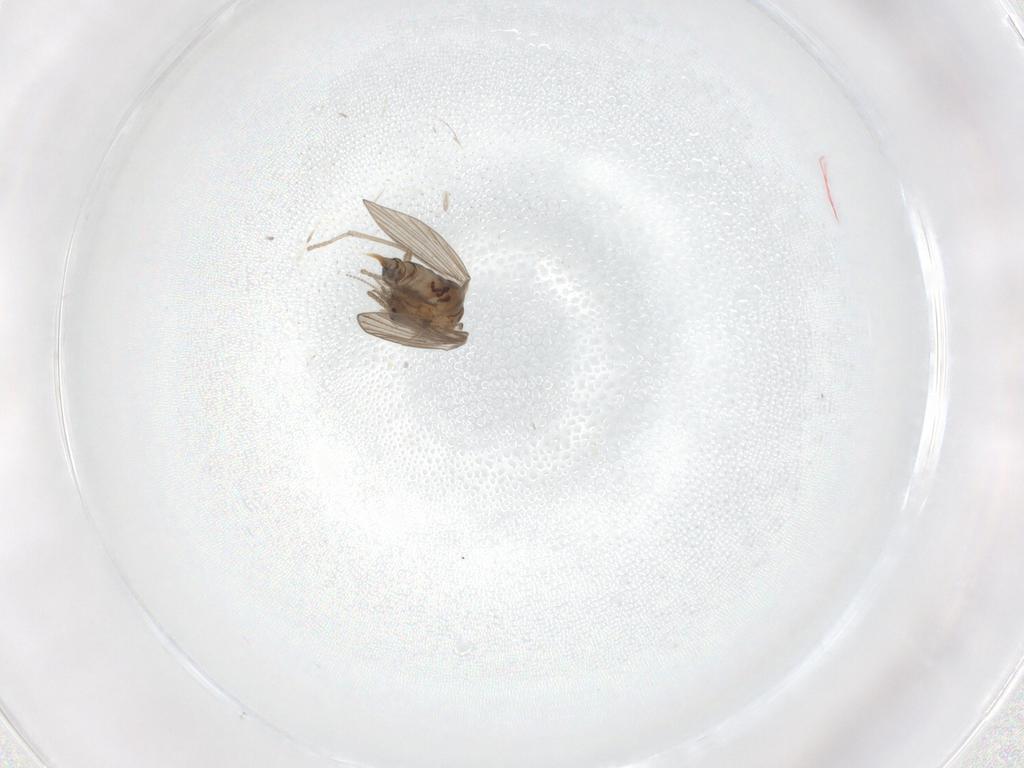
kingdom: Animalia
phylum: Arthropoda
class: Insecta
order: Diptera
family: Psychodidae
